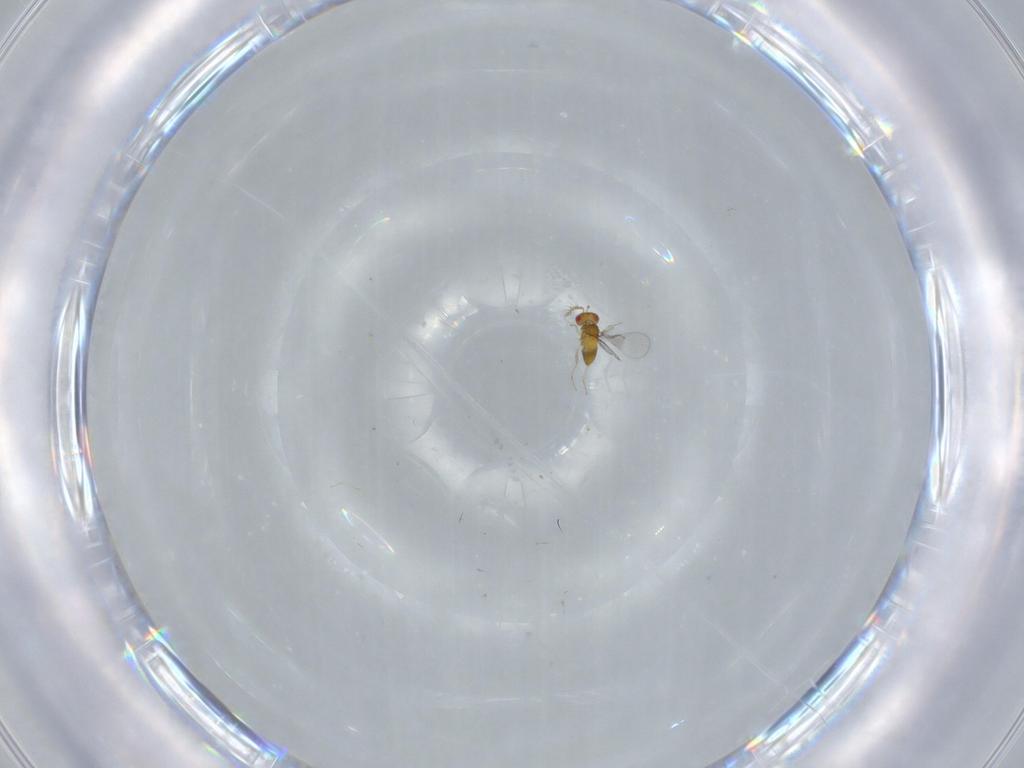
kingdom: Animalia
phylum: Arthropoda
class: Insecta
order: Hymenoptera
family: Trichogrammatidae
